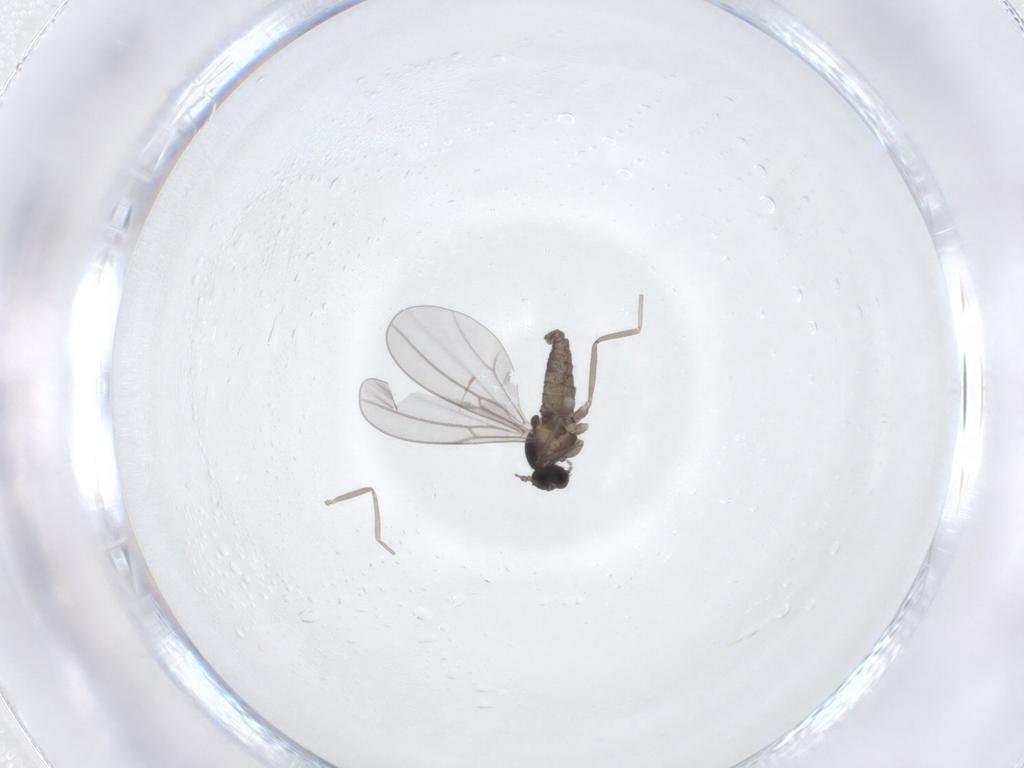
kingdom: Animalia
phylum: Arthropoda
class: Insecta
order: Diptera
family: Cecidomyiidae
